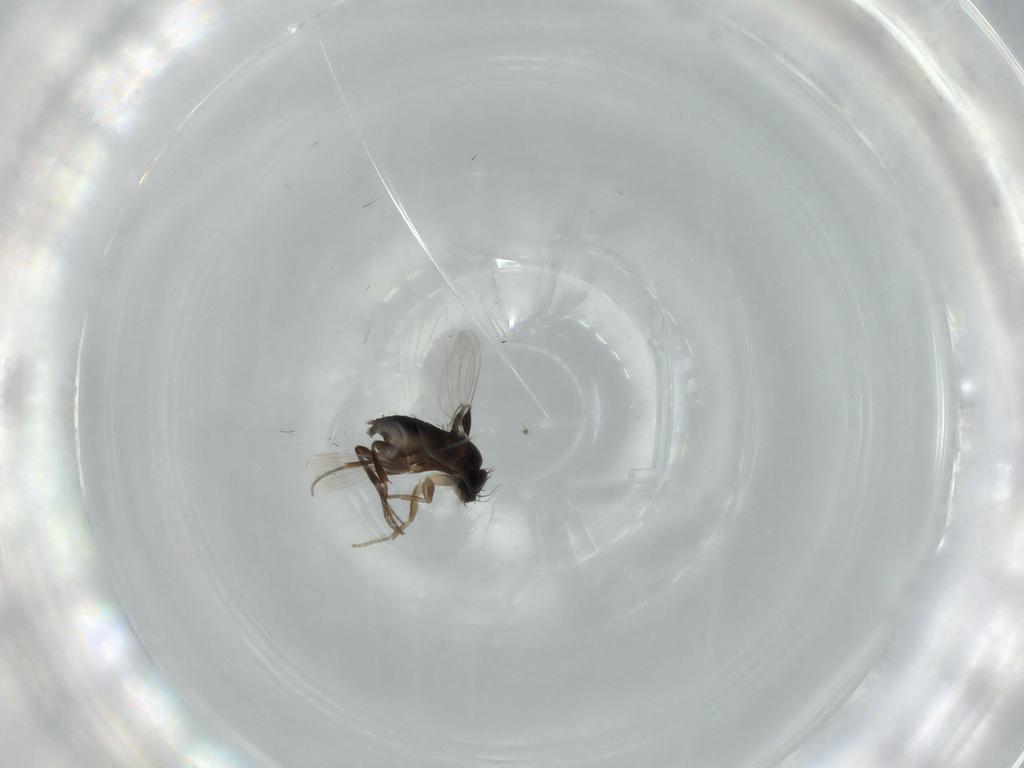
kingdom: Animalia
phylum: Arthropoda
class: Insecta
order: Diptera
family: Phoridae
